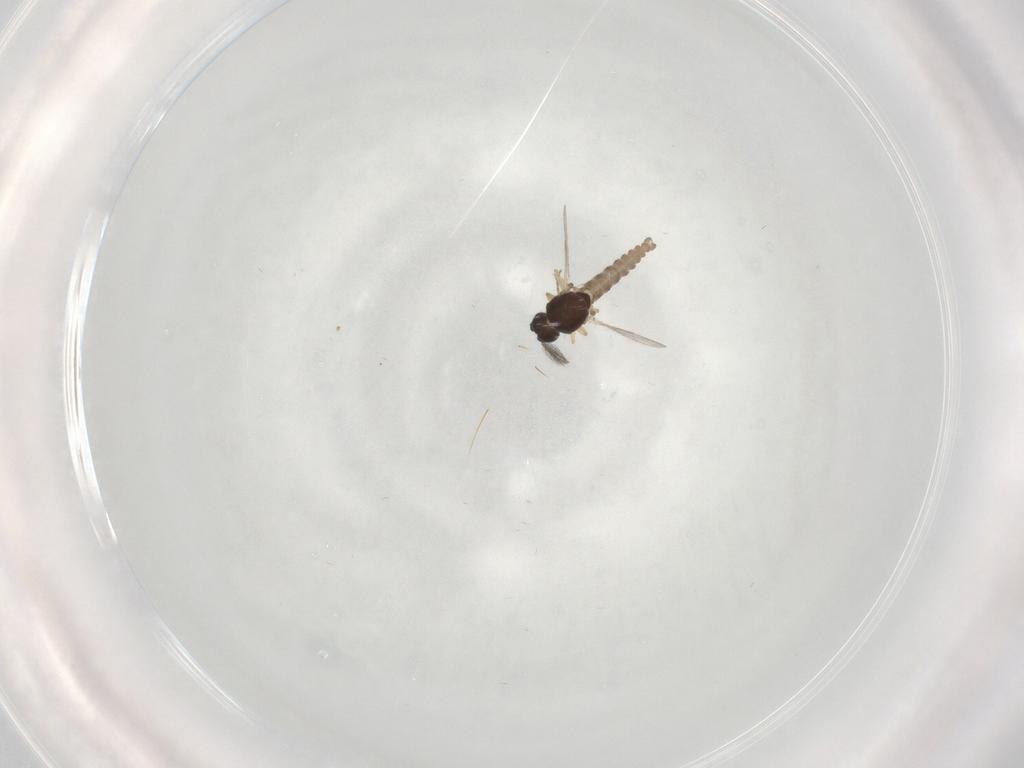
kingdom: Animalia
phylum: Arthropoda
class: Insecta
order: Diptera
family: Ceratopogonidae
